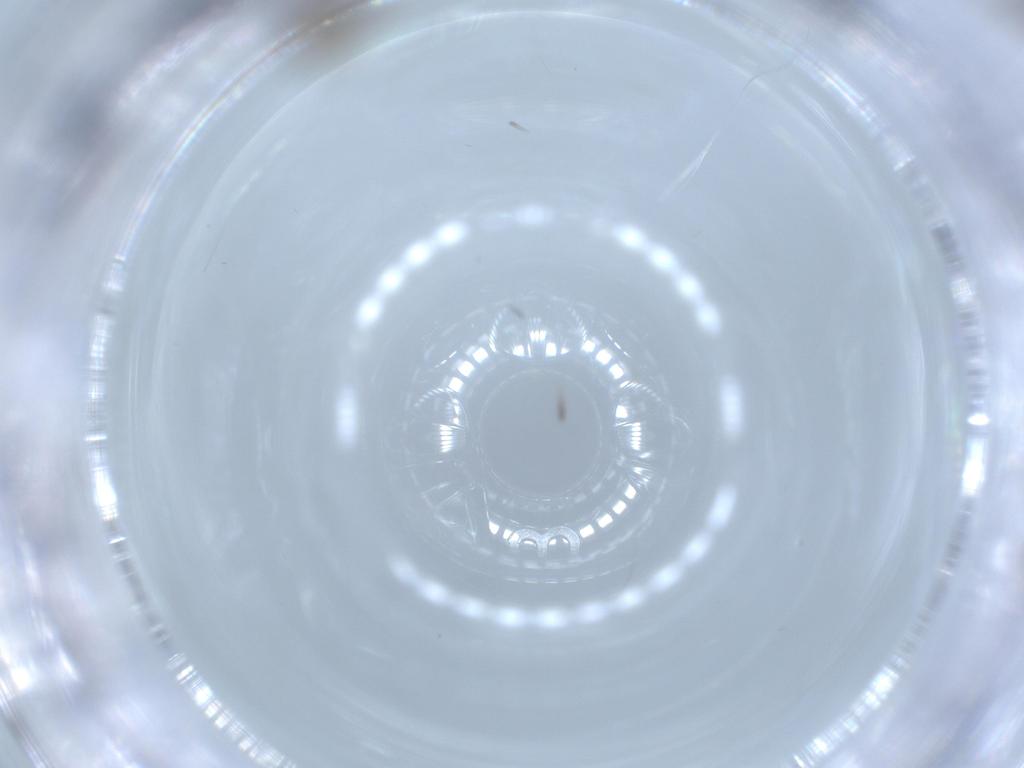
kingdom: Animalia
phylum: Arthropoda
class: Insecta
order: Diptera
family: Chironomidae
